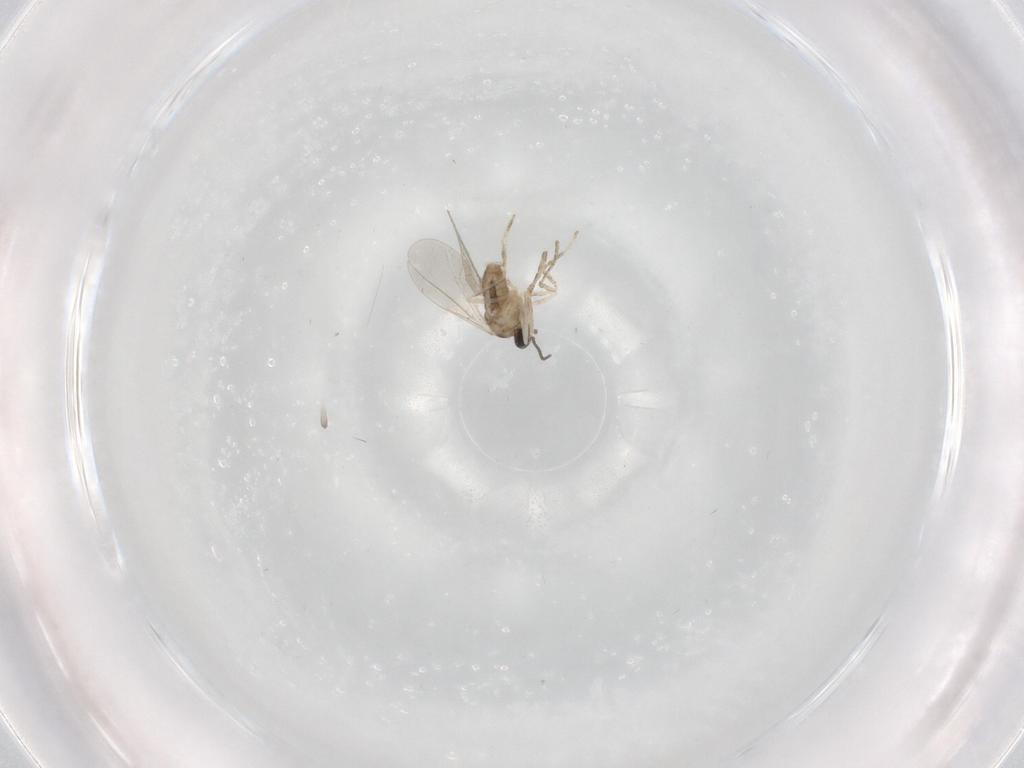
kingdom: Animalia
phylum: Arthropoda
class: Insecta
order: Diptera
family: Cecidomyiidae
